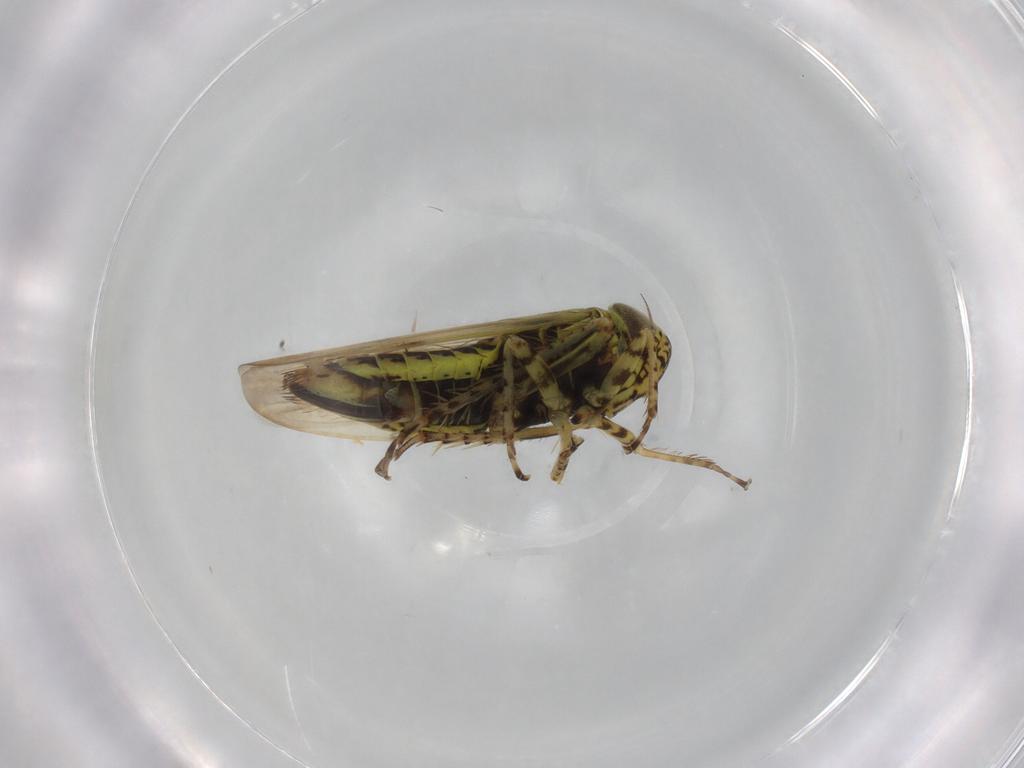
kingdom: Animalia
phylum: Arthropoda
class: Insecta
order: Hemiptera
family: Cicadellidae
